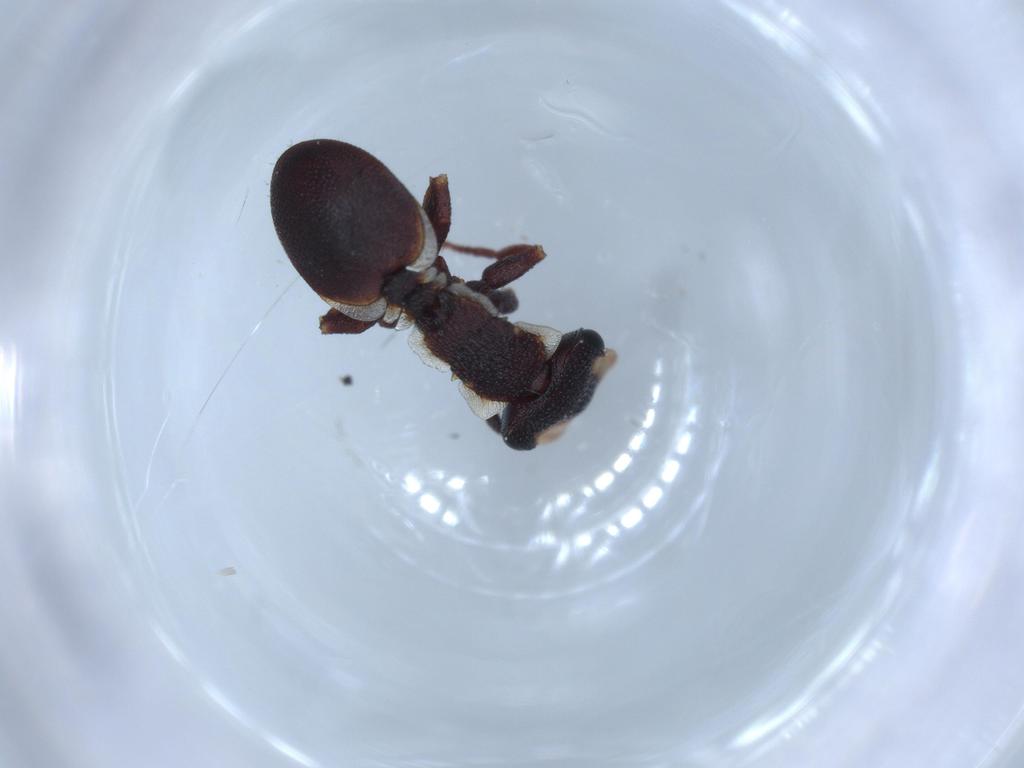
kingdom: Animalia
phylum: Arthropoda
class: Insecta
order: Hymenoptera
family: Formicidae
